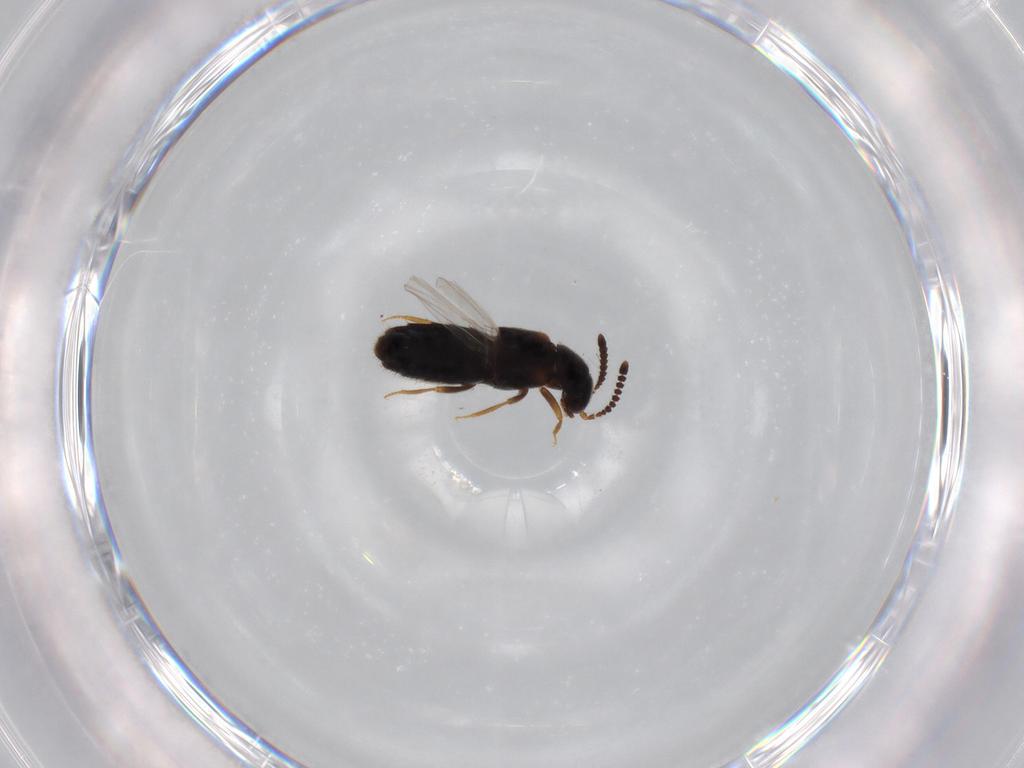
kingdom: Animalia
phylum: Arthropoda
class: Insecta
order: Coleoptera
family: Staphylinidae
